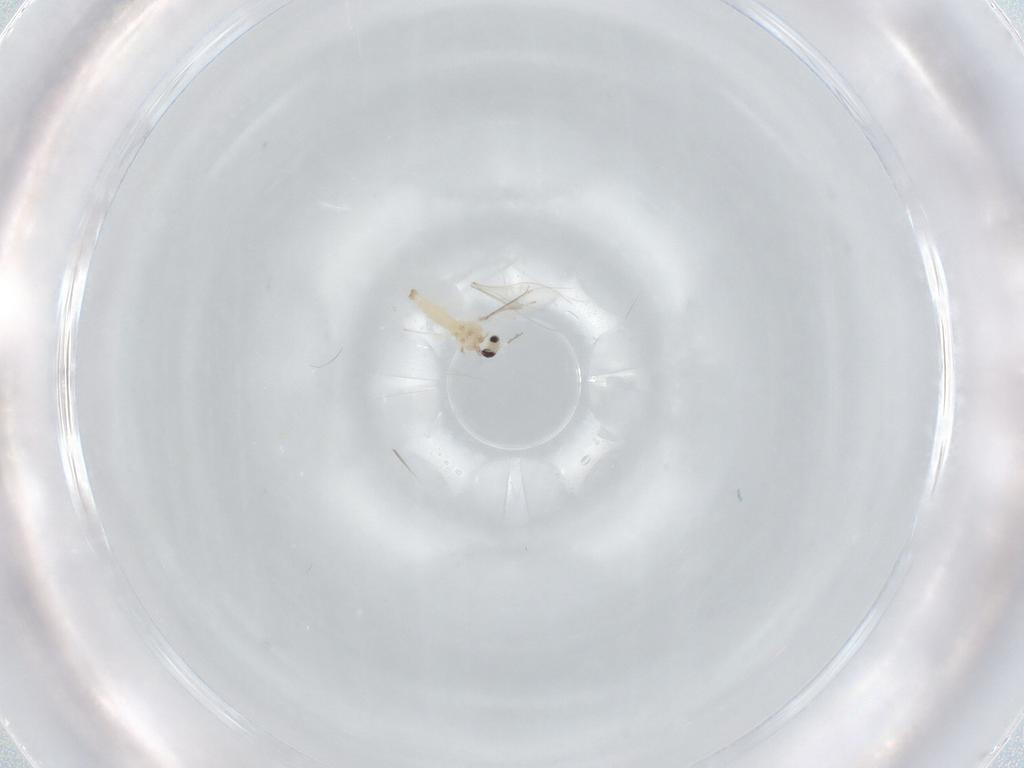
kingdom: Animalia
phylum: Arthropoda
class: Insecta
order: Diptera
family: Cecidomyiidae
